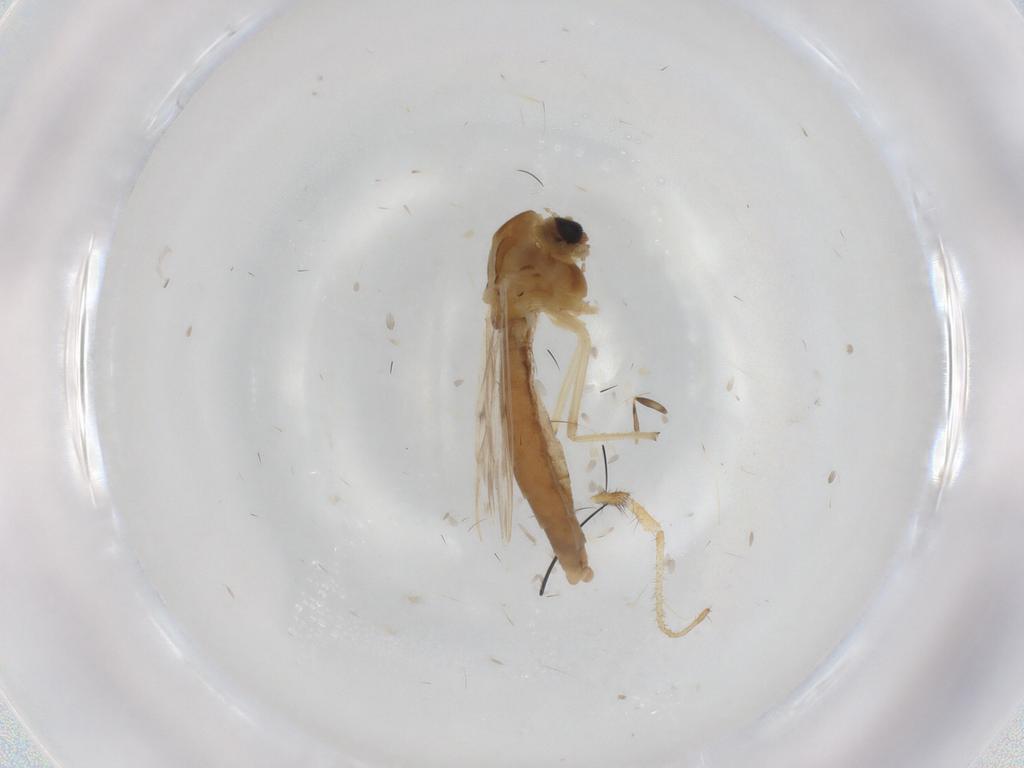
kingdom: Animalia
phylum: Arthropoda
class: Insecta
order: Diptera
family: Chironomidae
